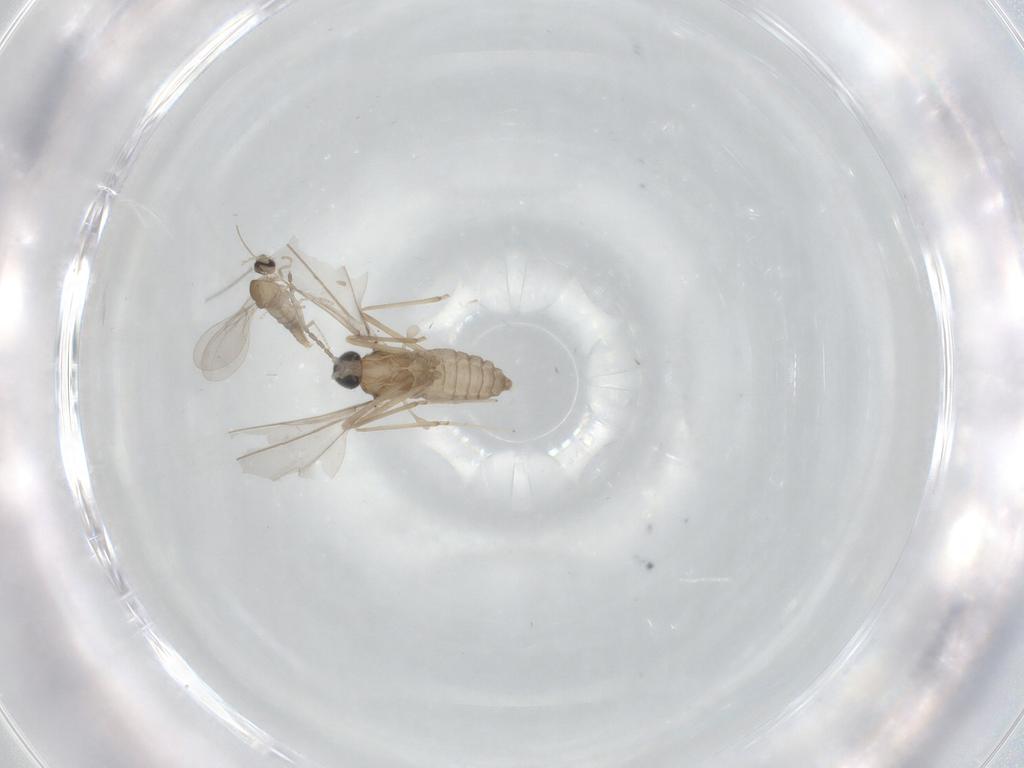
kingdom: Animalia
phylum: Arthropoda
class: Insecta
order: Diptera
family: Cecidomyiidae
